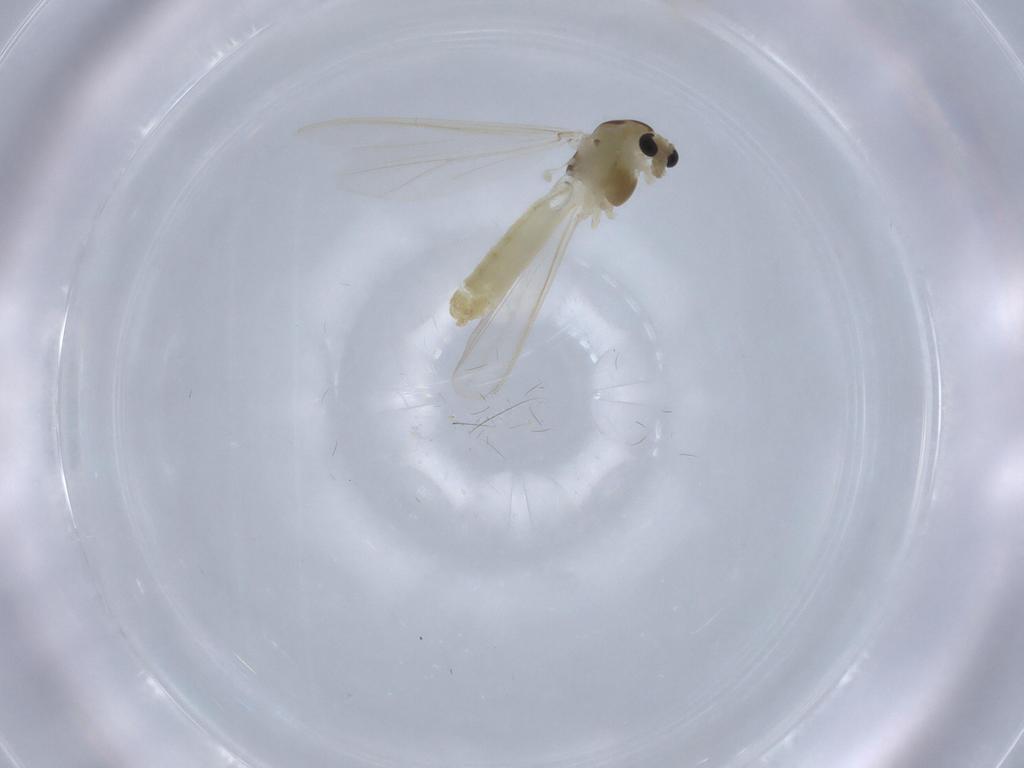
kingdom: Animalia
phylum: Arthropoda
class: Insecta
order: Diptera
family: Chironomidae
